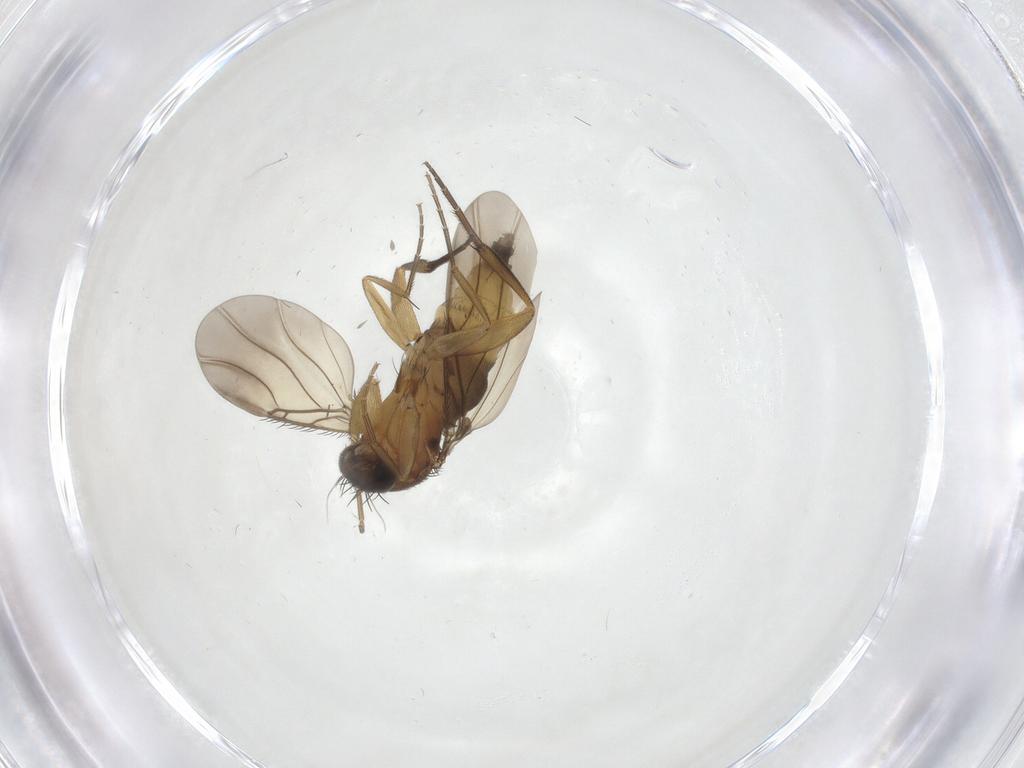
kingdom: Animalia
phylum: Arthropoda
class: Insecta
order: Diptera
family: Phoridae
